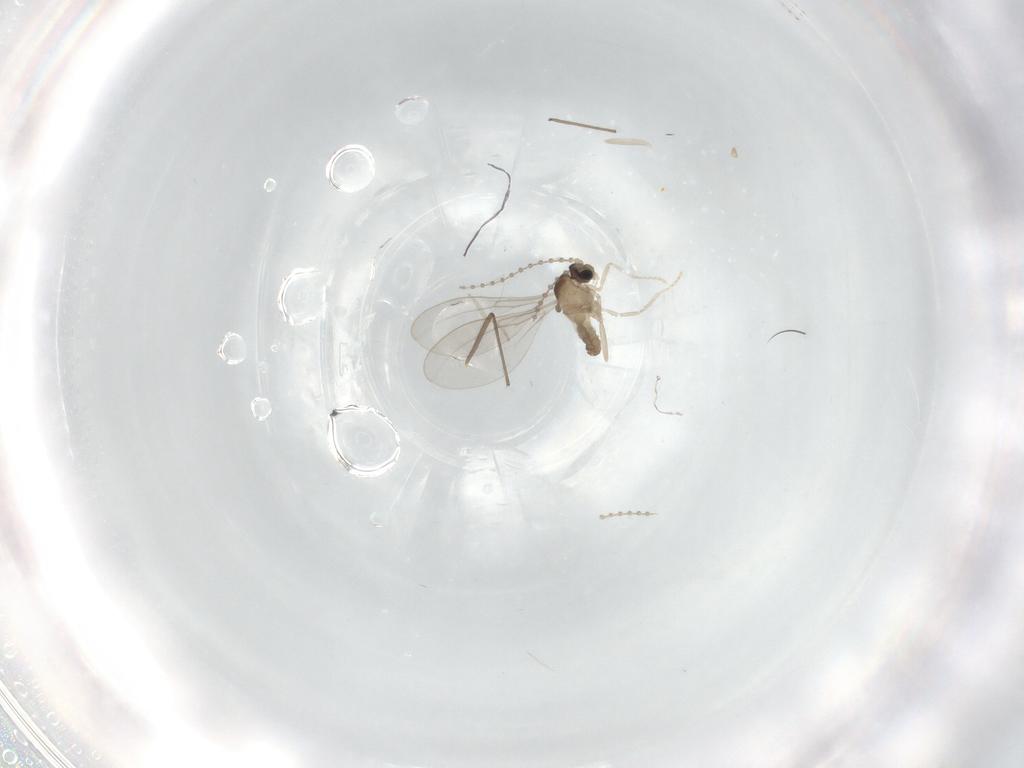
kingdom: Animalia
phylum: Arthropoda
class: Insecta
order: Diptera
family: Cecidomyiidae
